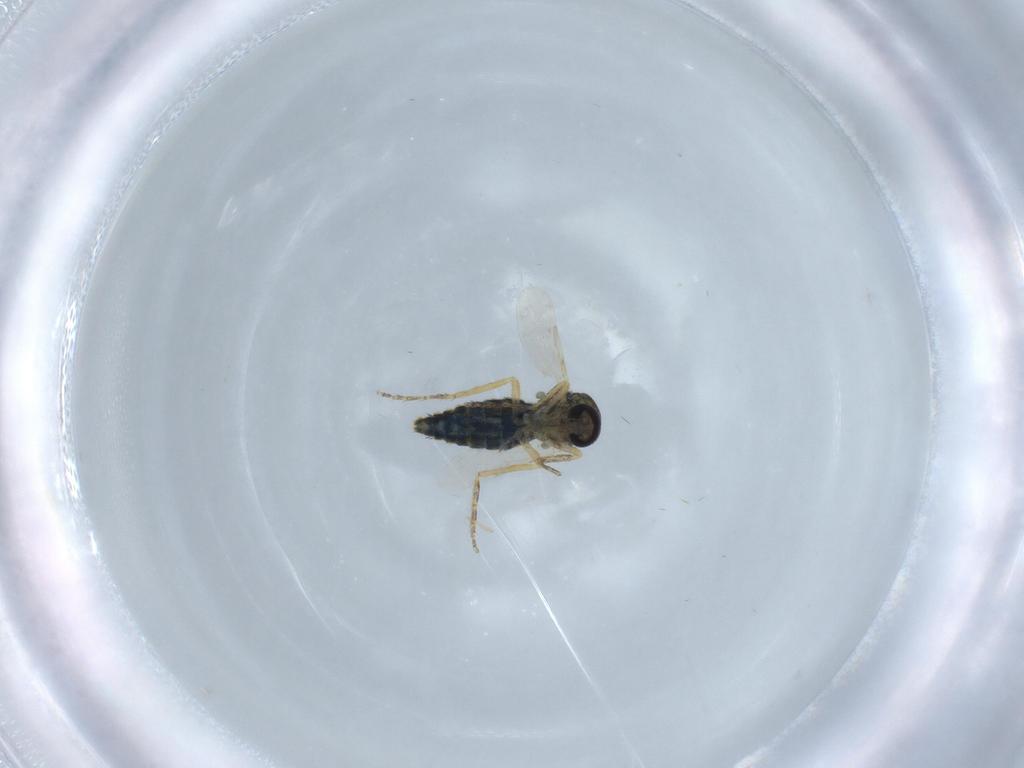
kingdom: Animalia
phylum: Arthropoda
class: Insecta
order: Diptera
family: Ceratopogonidae
